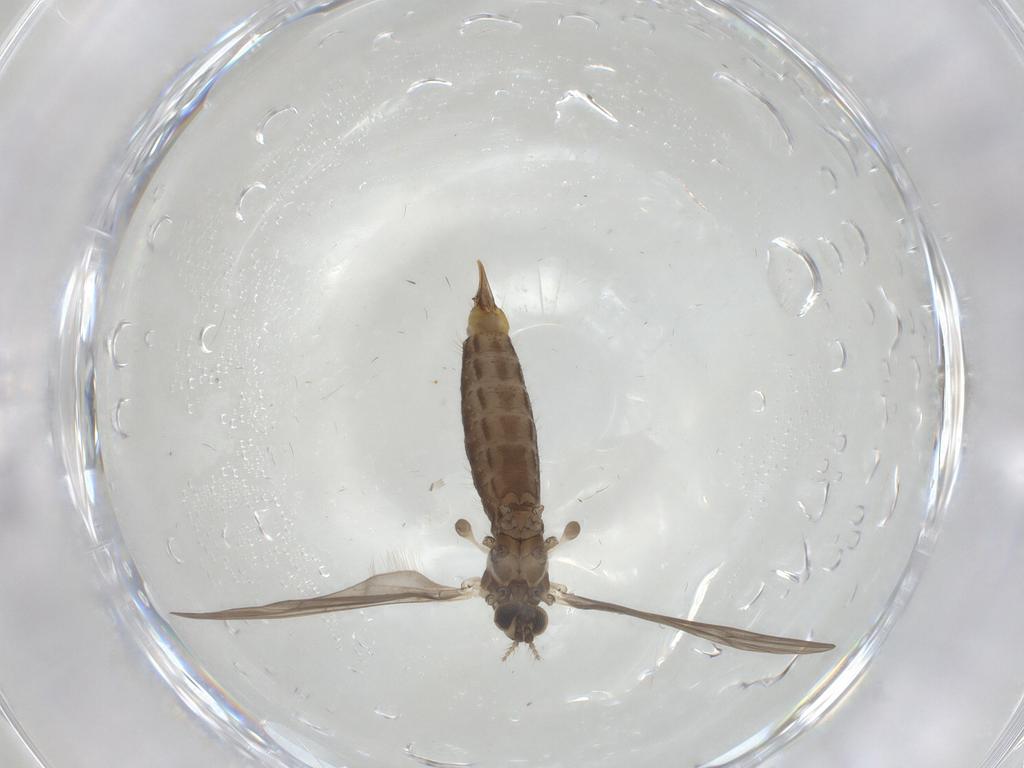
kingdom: Animalia
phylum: Arthropoda
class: Insecta
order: Diptera
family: Limoniidae
